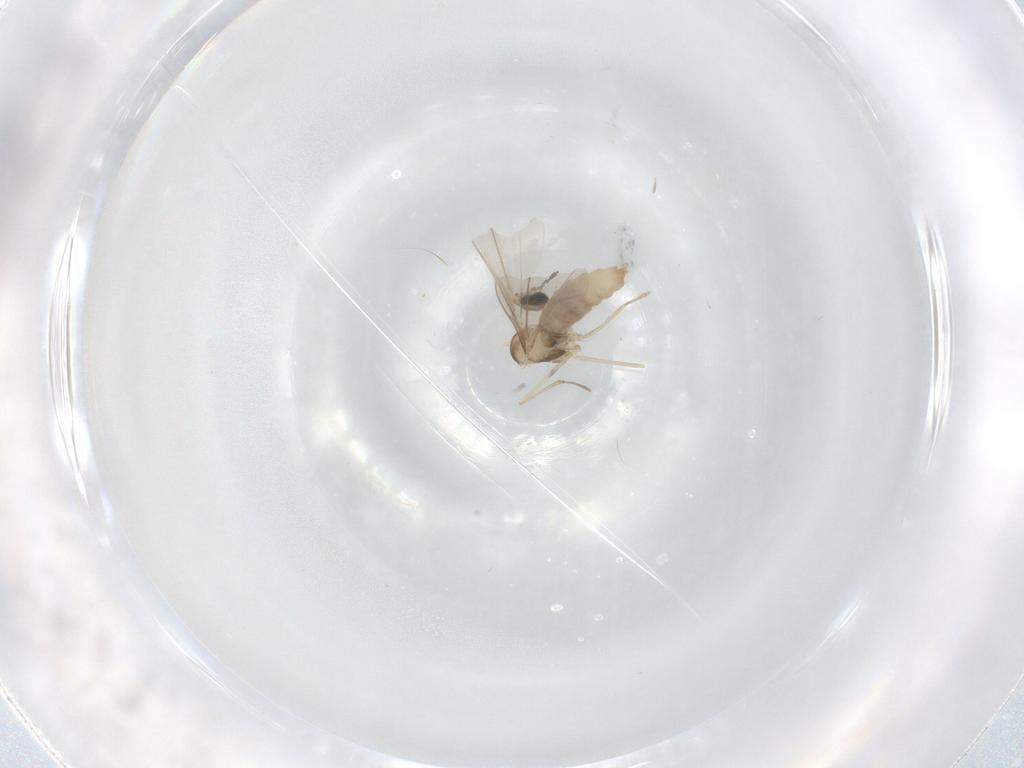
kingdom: Animalia
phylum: Arthropoda
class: Insecta
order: Diptera
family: Cecidomyiidae
